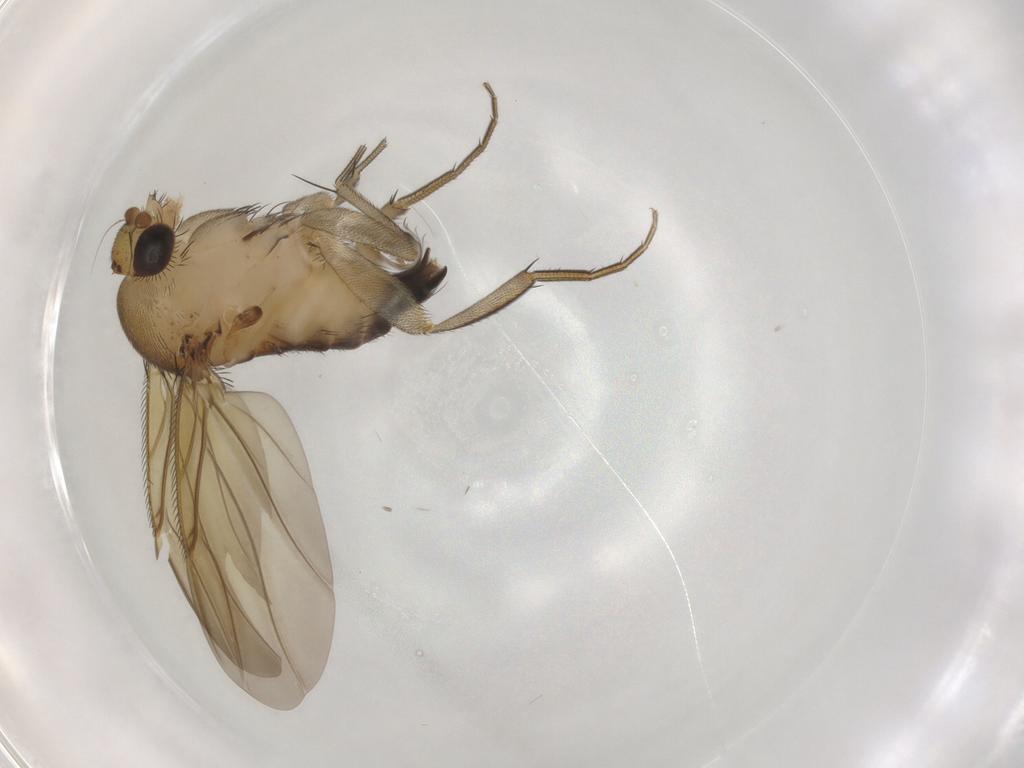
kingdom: Animalia
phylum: Arthropoda
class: Insecta
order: Diptera
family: Phoridae
